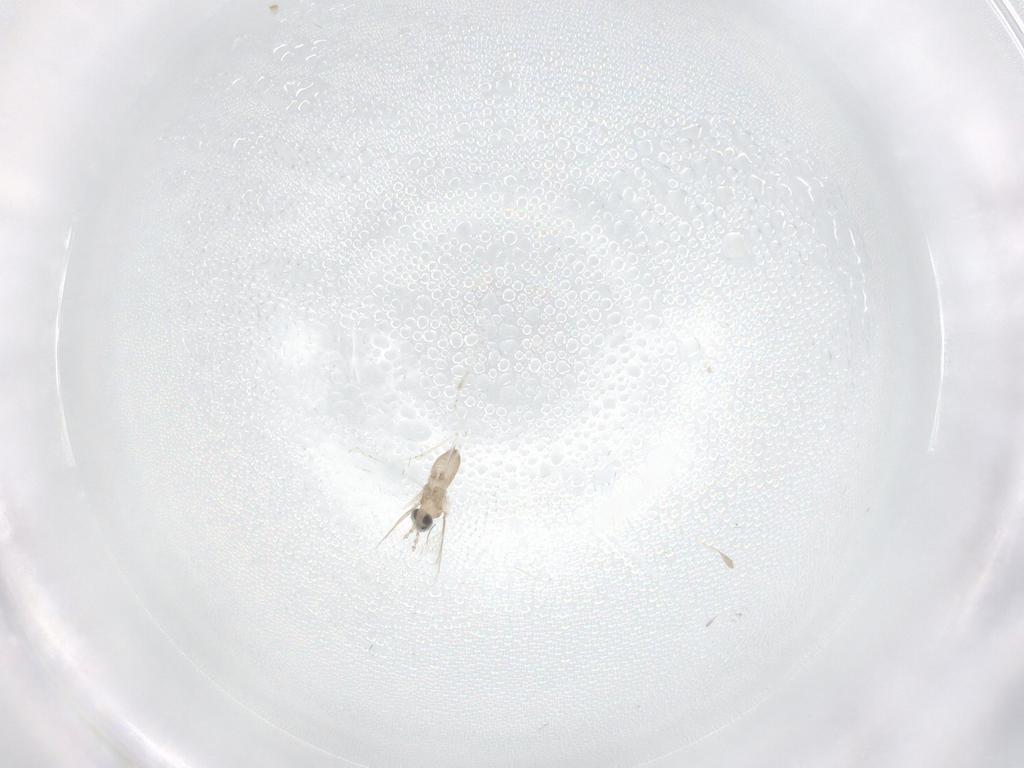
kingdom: Animalia
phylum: Arthropoda
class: Insecta
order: Diptera
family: Cecidomyiidae
